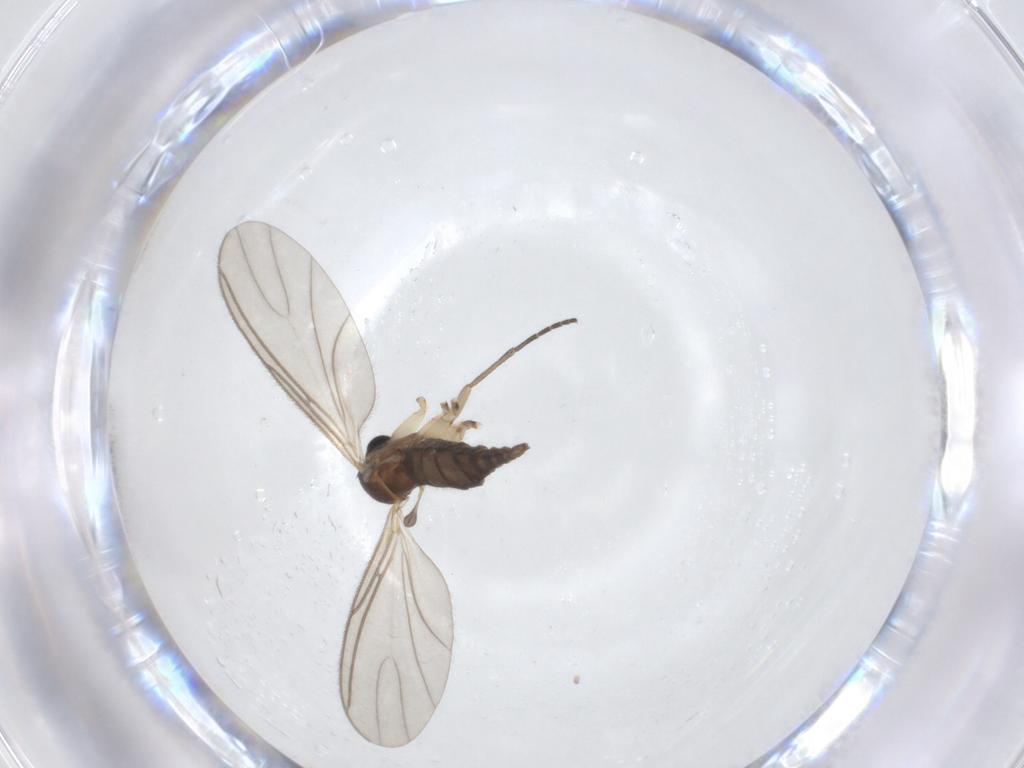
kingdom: Animalia
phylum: Arthropoda
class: Insecta
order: Diptera
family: Sciaridae
